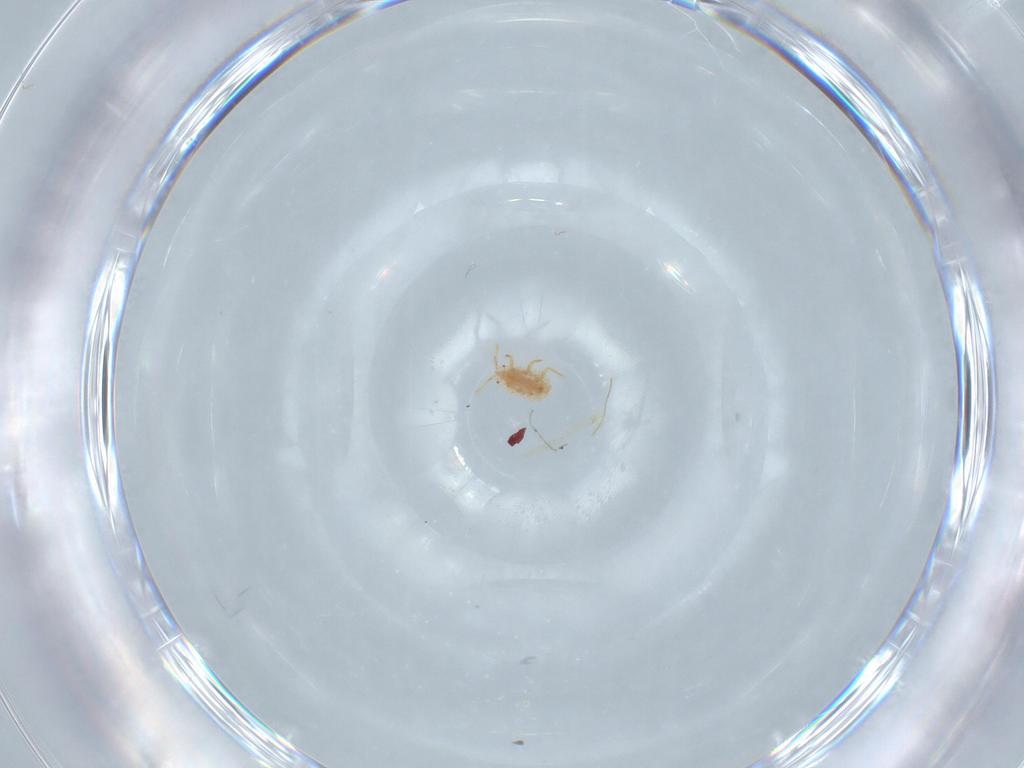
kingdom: Animalia
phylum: Arthropoda
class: Insecta
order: Hemiptera
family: Pseudococcidae
